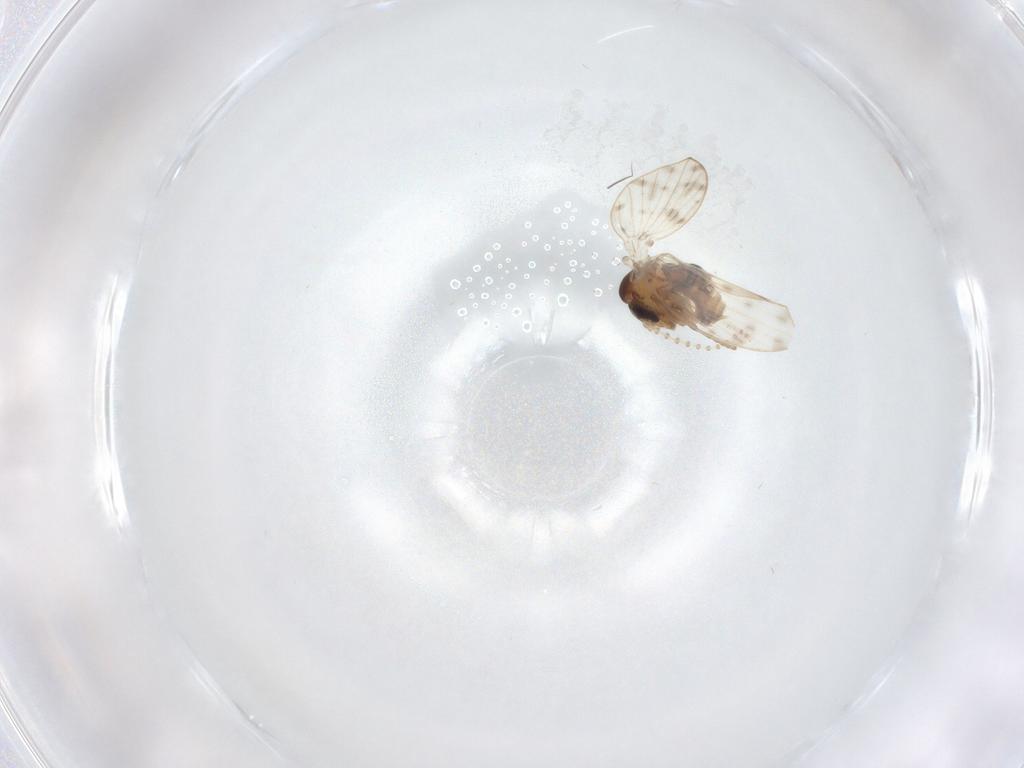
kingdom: Animalia
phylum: Arthropoda
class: Insecta
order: Diptera
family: Psychodidae
